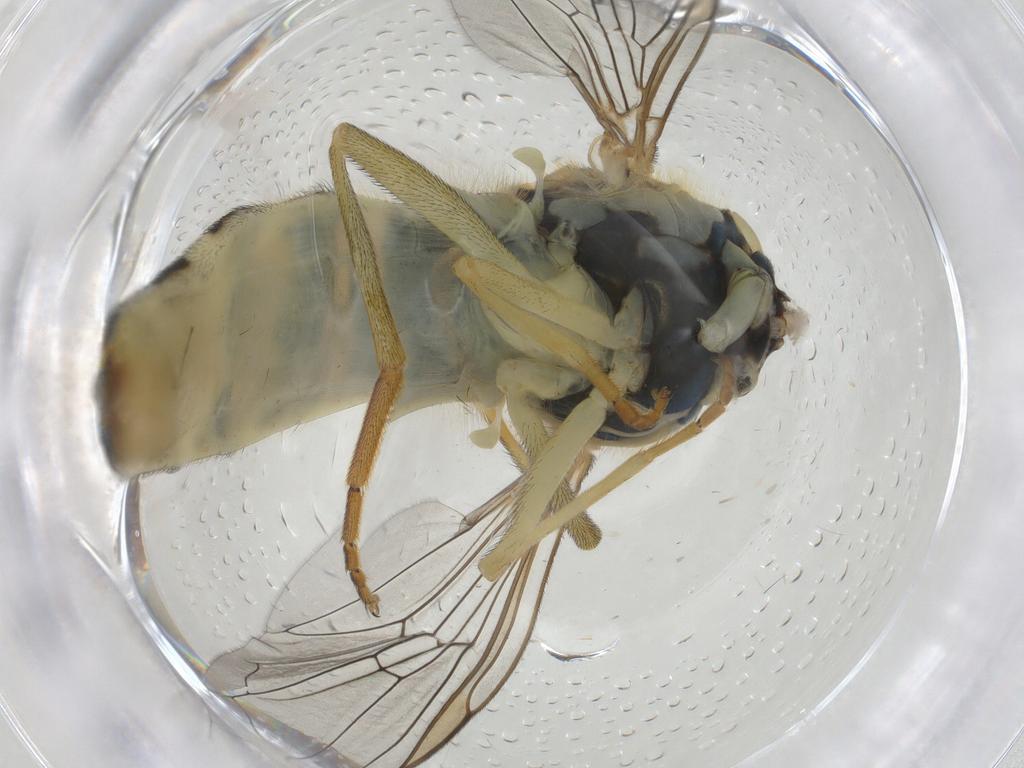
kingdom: Animalia
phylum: Arthropoda
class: Insecta
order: Diptera
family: Syrphidae
